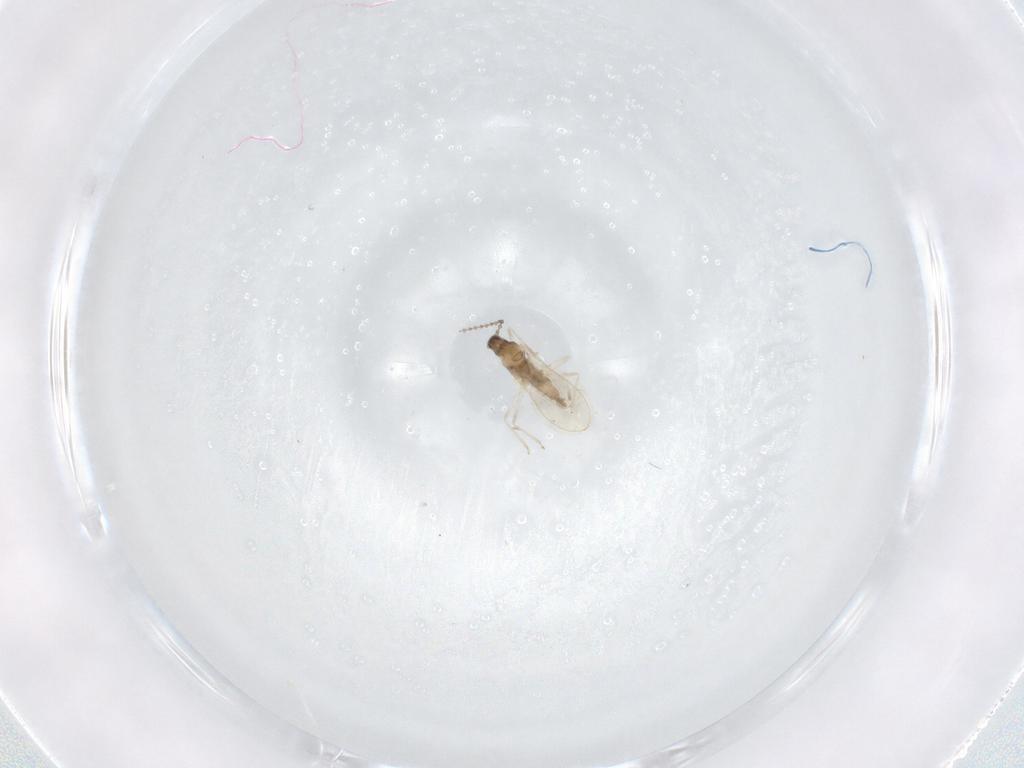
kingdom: Animalia
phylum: Arthropoda
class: Insecta
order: Diptera
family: Cecidomyiidae
